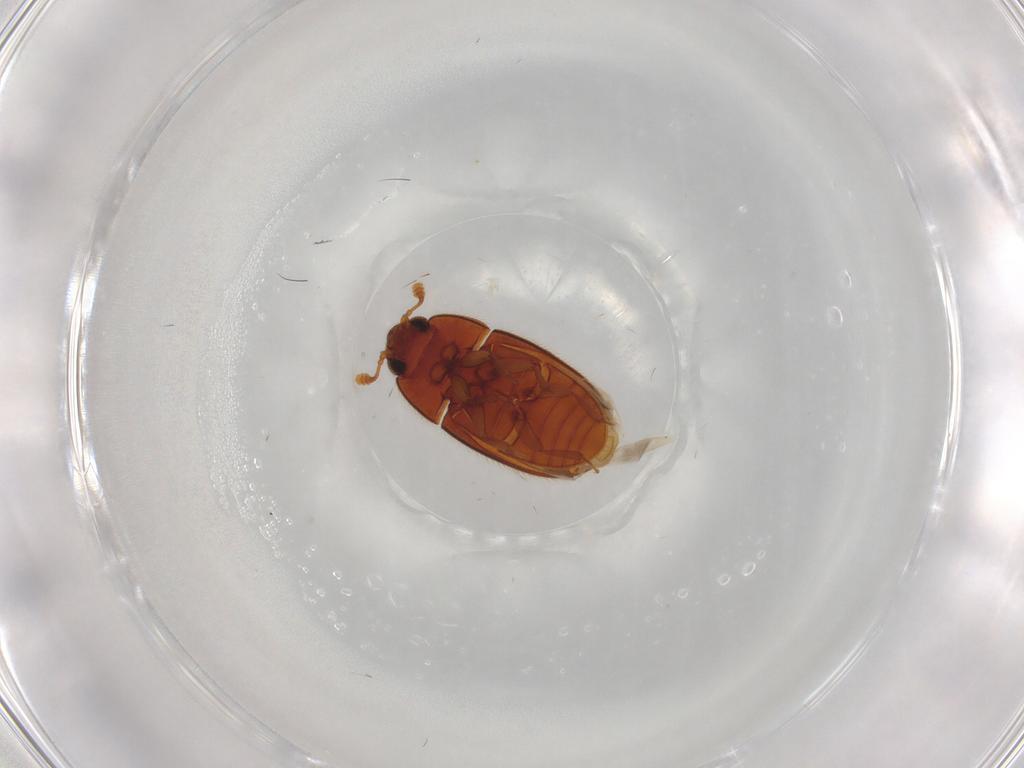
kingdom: Animalia
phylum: Arthropoda
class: Insecta
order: Coleoptera
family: Biphyllidae
